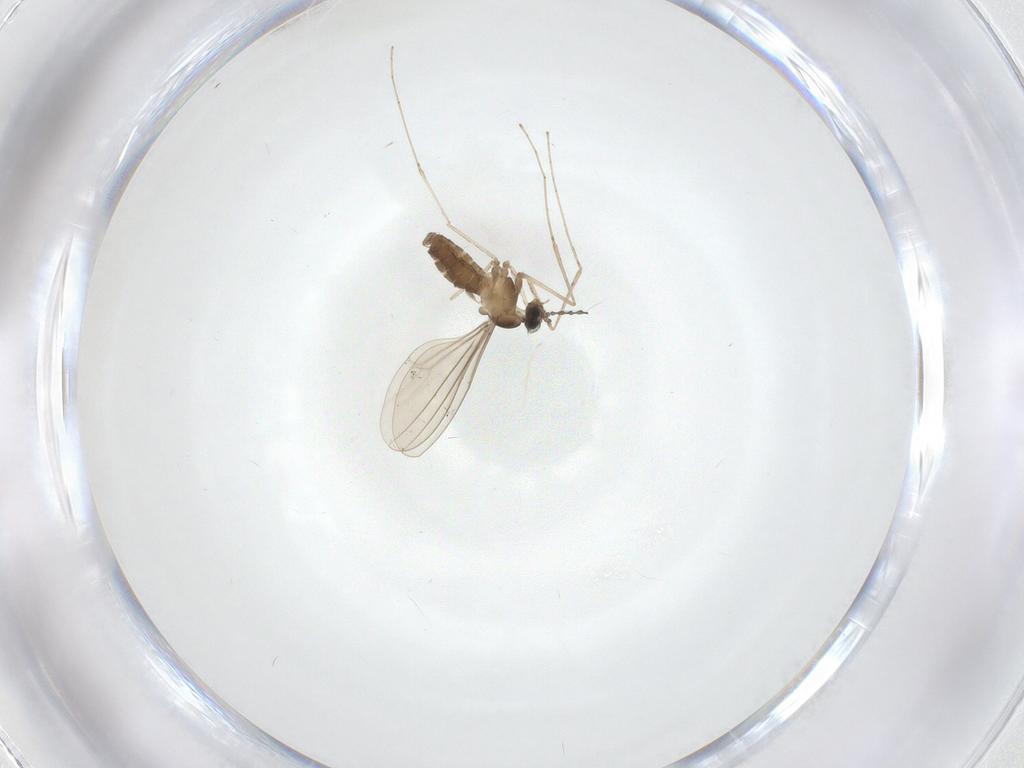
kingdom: Animalia
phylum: Arthropoda
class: Insecta
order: Diptera
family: Cecidomyiidae
